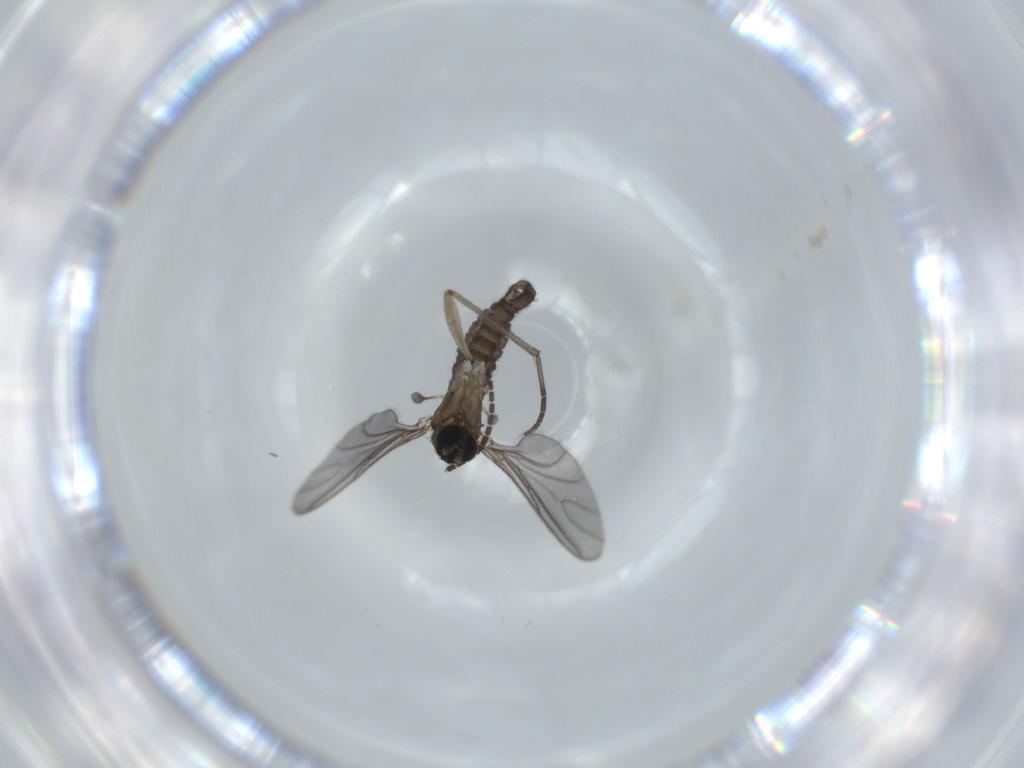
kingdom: Animalia
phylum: Arthropoda
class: Insecta
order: Diptera
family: Sciaridae
